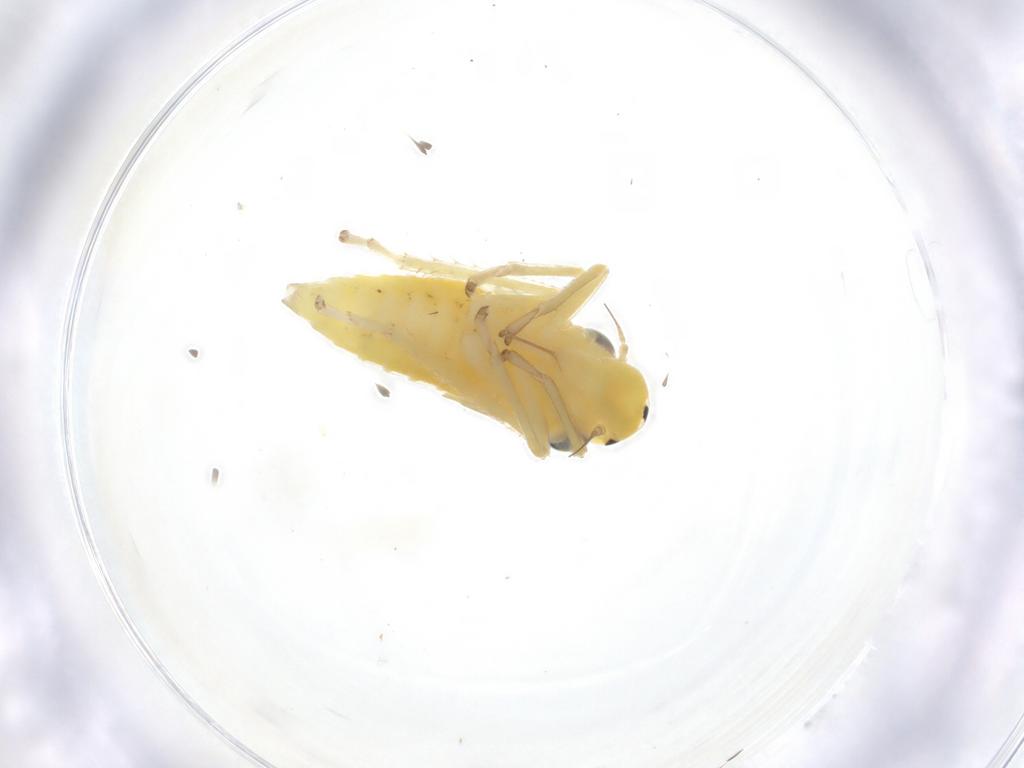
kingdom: Animalia
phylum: Arthropoda
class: Insecta
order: Hemiptera
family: Cicadellidae
